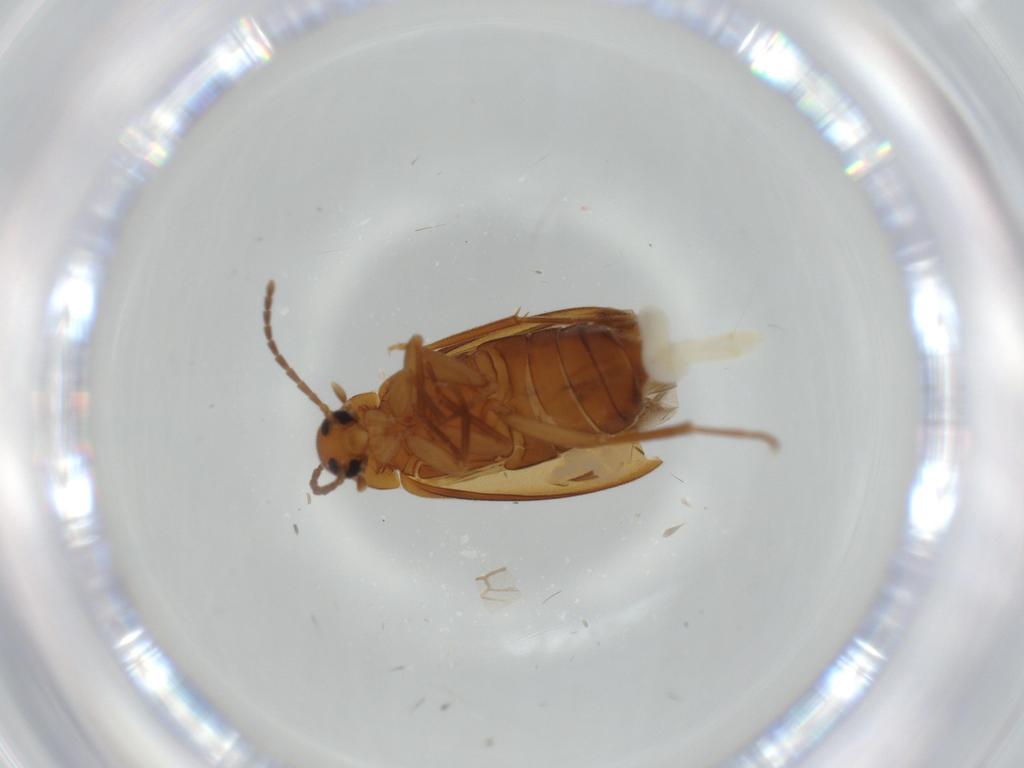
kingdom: Animalia
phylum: Arthropoda
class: Insecta
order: Coleoptera
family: Scraptiidae
